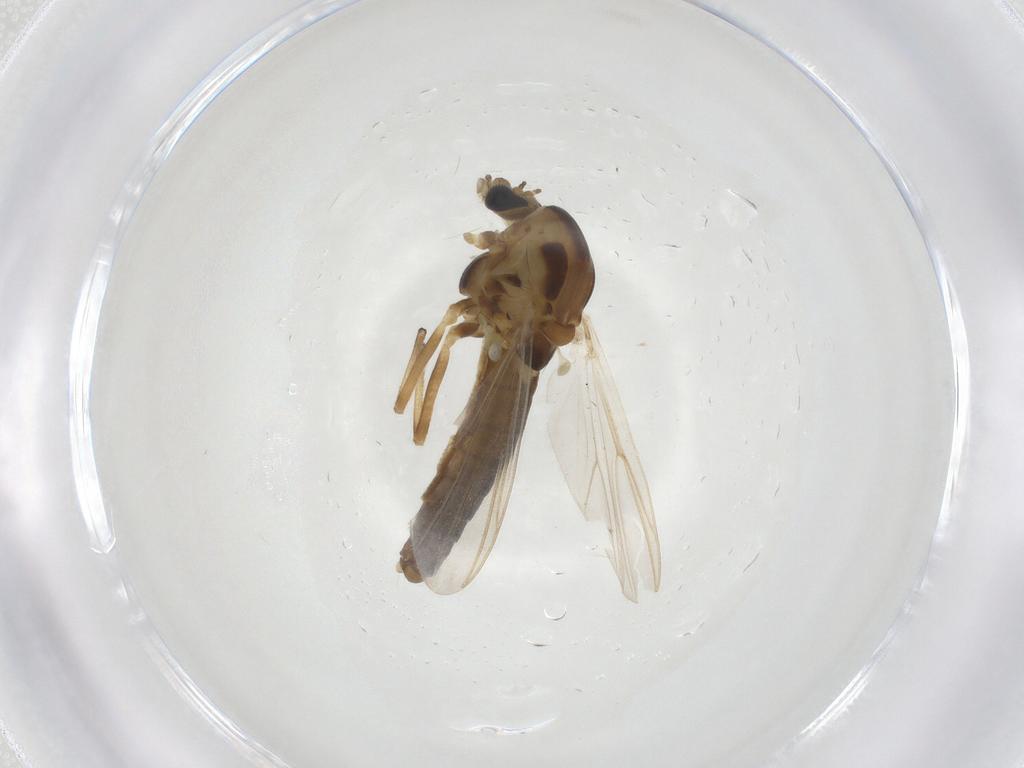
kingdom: Animalia
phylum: Arthropoda
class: Insecta
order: Diptera
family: Chironomidae
